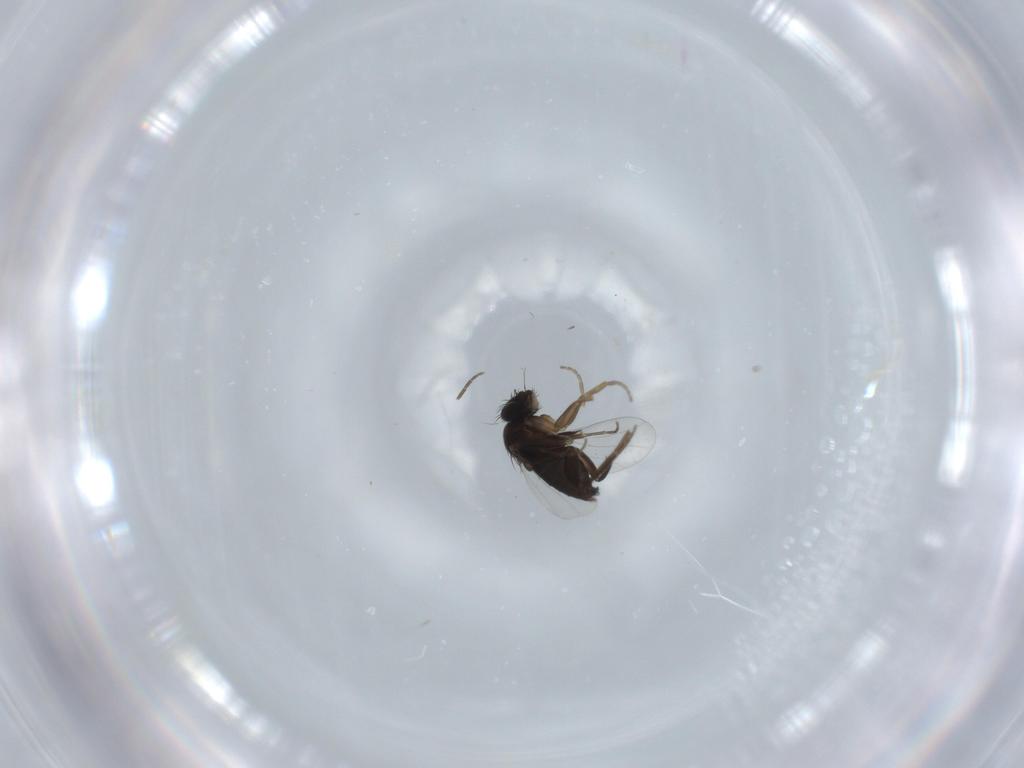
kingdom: Animalia
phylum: Arthropoda
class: Insecta
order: Diptera
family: Phoridae
